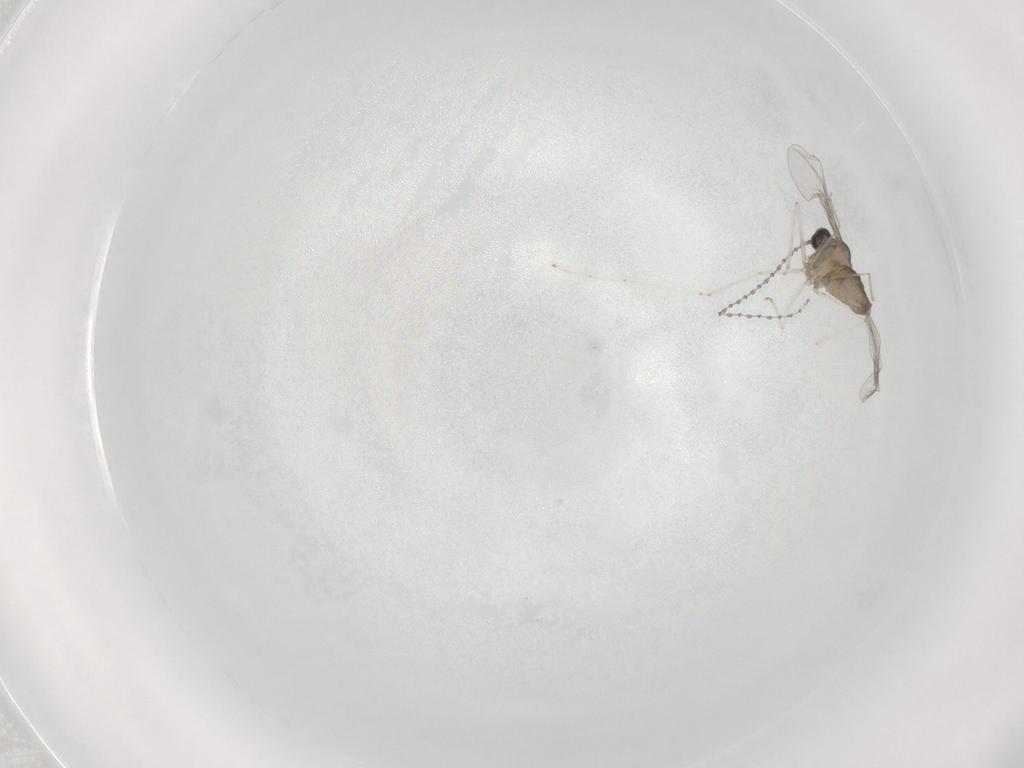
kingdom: Animalia
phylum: Arthropoda
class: Insecta
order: Diptera
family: Cecidomyiidae
